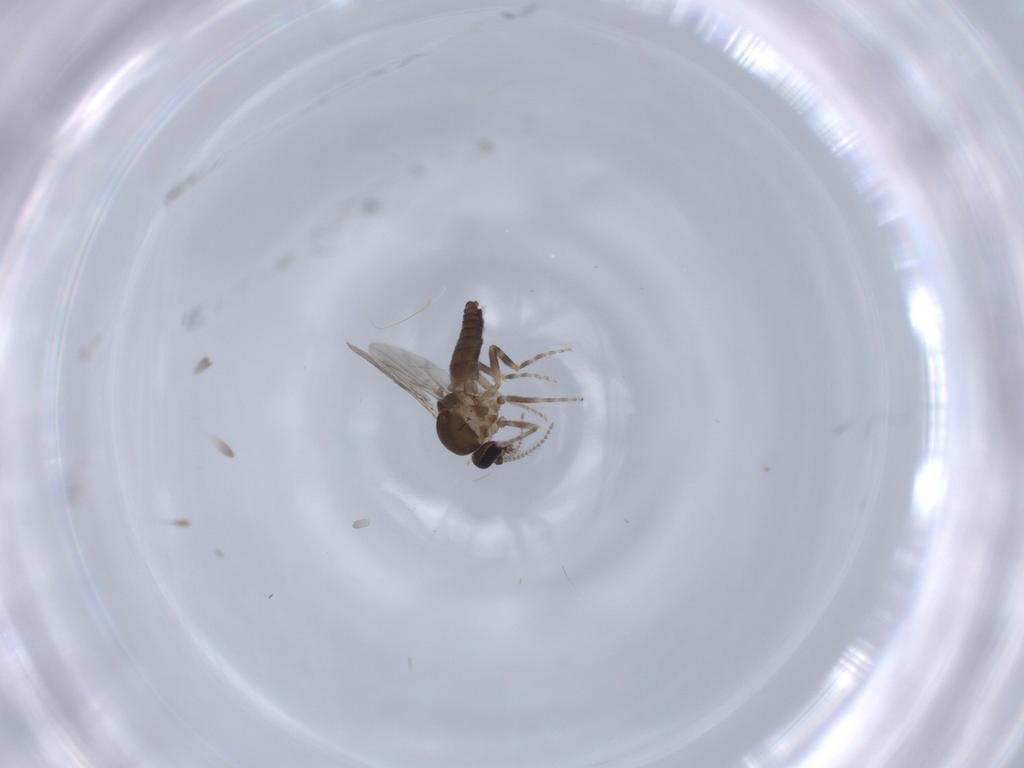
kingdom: Animalia
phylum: Arthropoda
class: Insecta
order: Diptera
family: Ceratopogonidae
